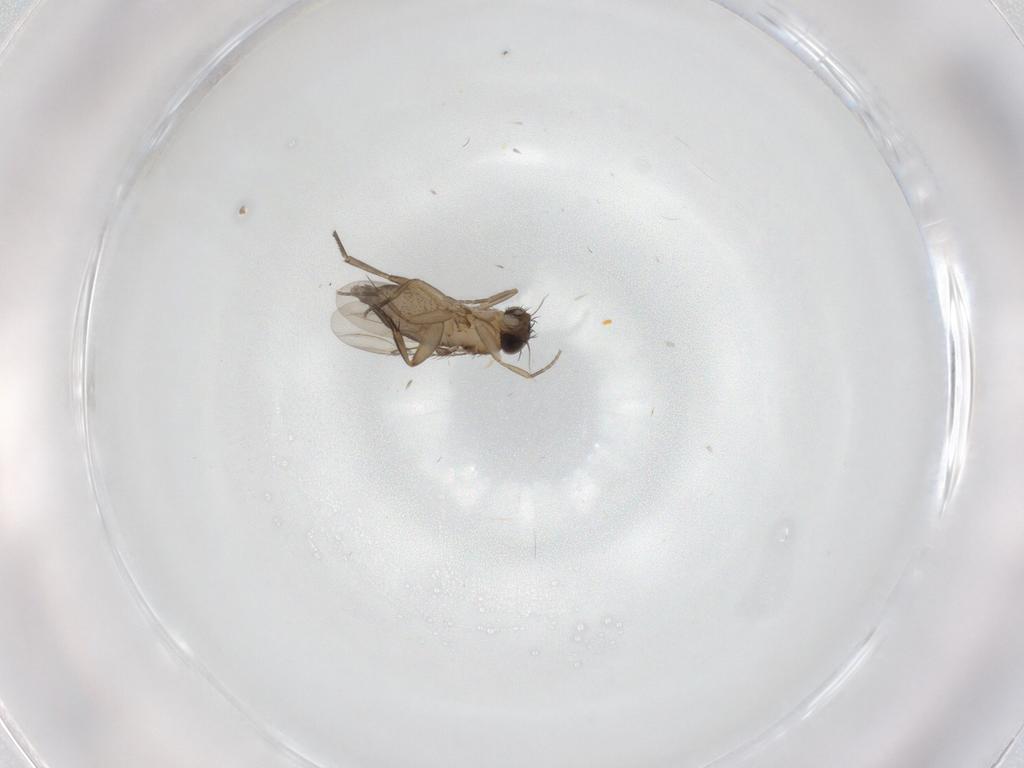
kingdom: Animalia
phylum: Arthropoda
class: Insecta
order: Diptera
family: Phoridae
